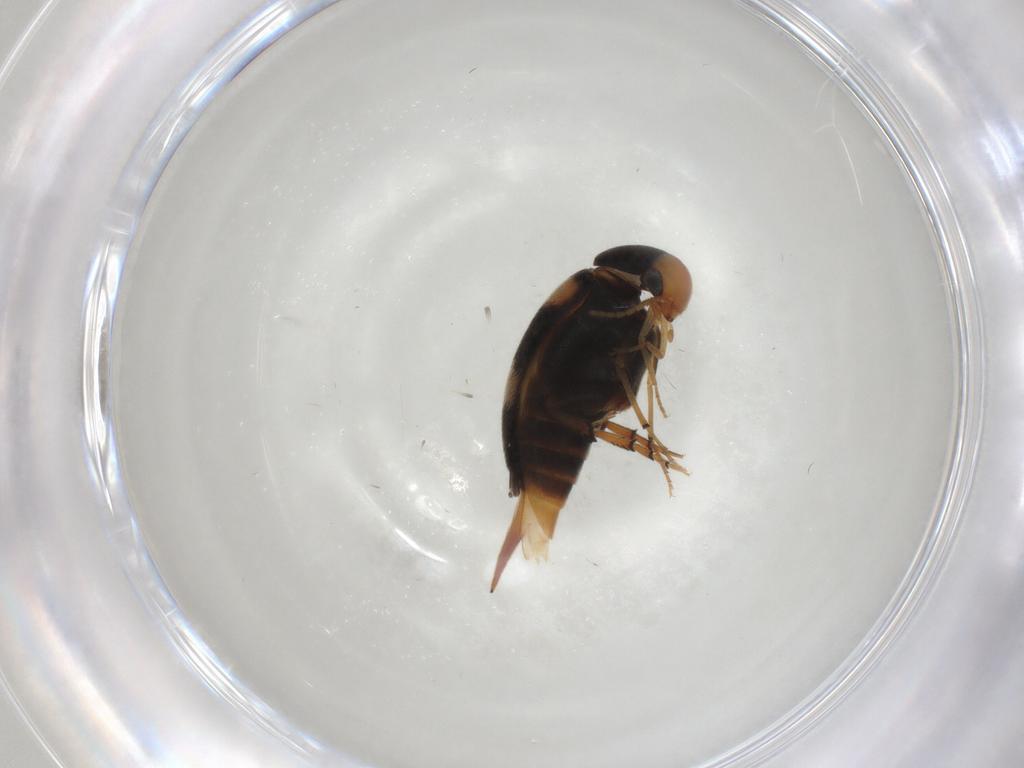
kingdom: Animalia
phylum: Arthropoda
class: Insecta
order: Coleoptera
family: Mordellidae
